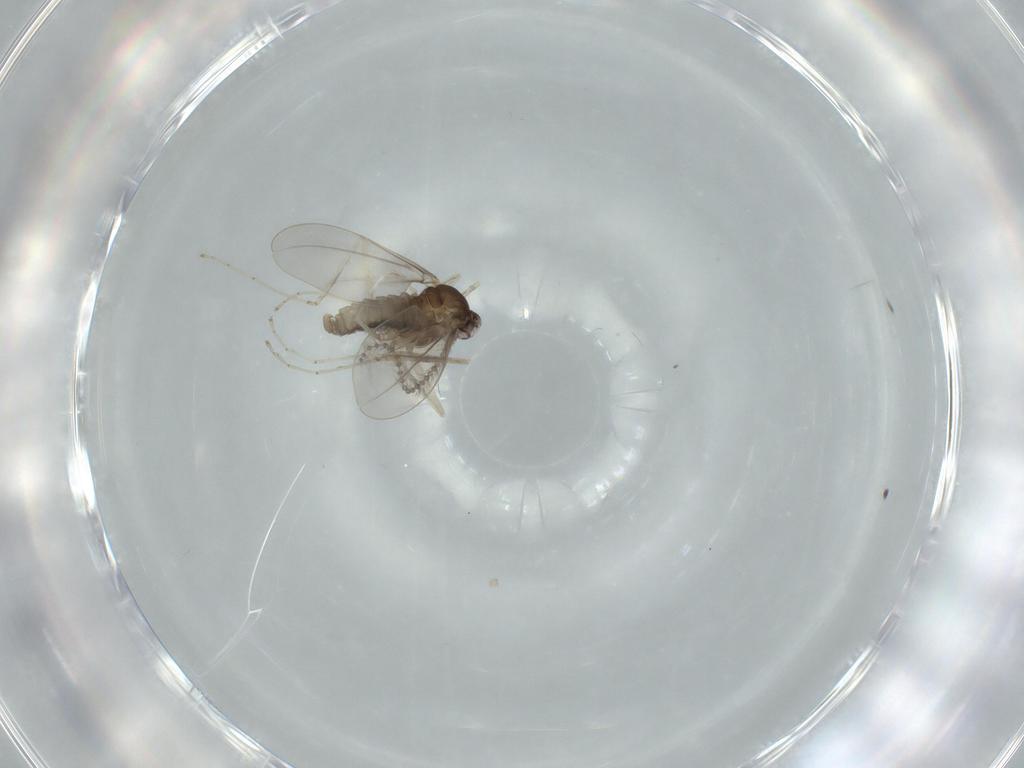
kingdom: Animalia
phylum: Arthropoda
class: Insecta
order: Diptera
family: Cecidomyiidae
